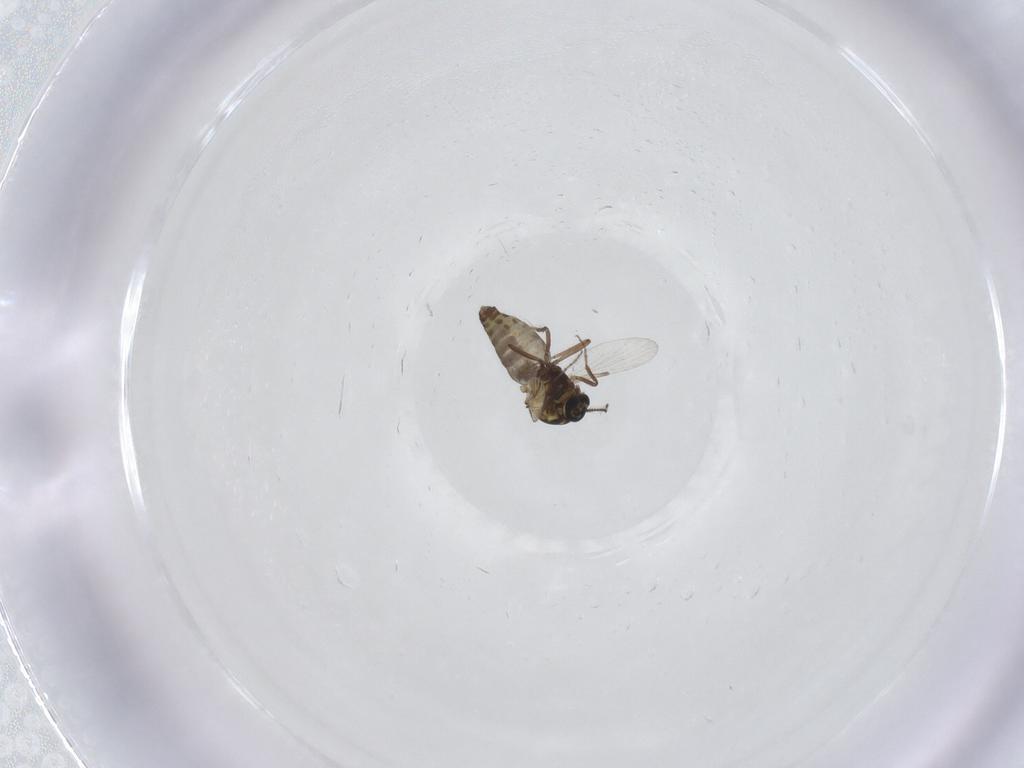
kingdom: Animalia
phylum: Arthropoda
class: Insecta
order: Diptera
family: Ceratopogonidae
